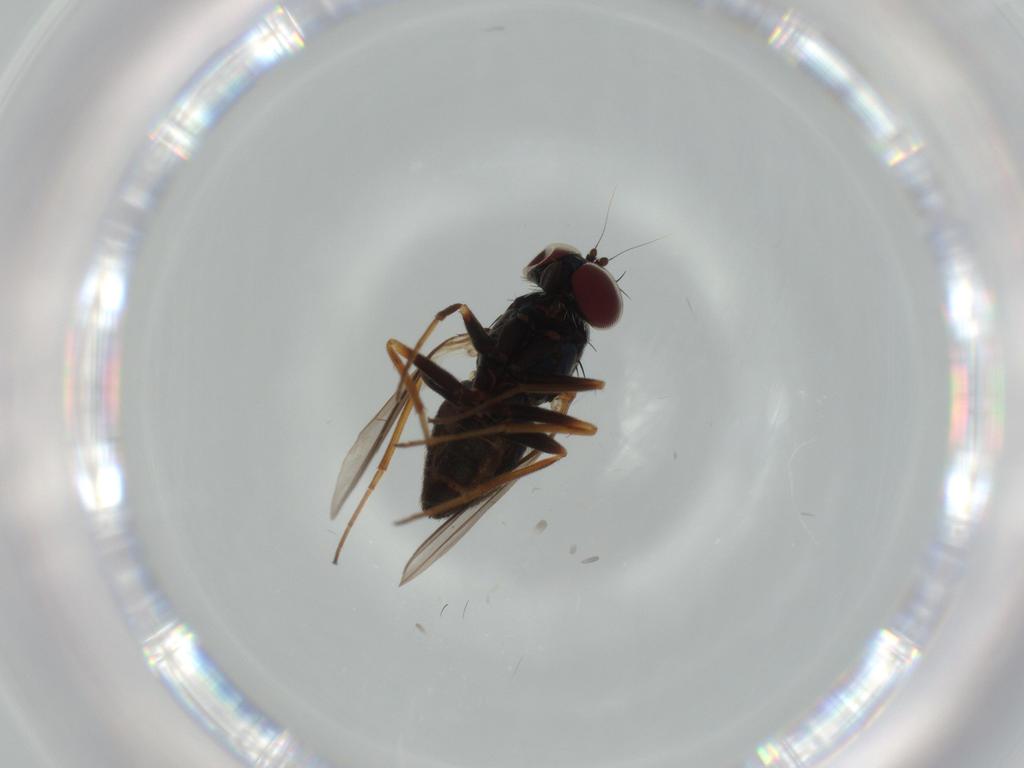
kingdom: Animalia
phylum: Arthropoda
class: Insecta
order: Diptera
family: Dolichopodidae
